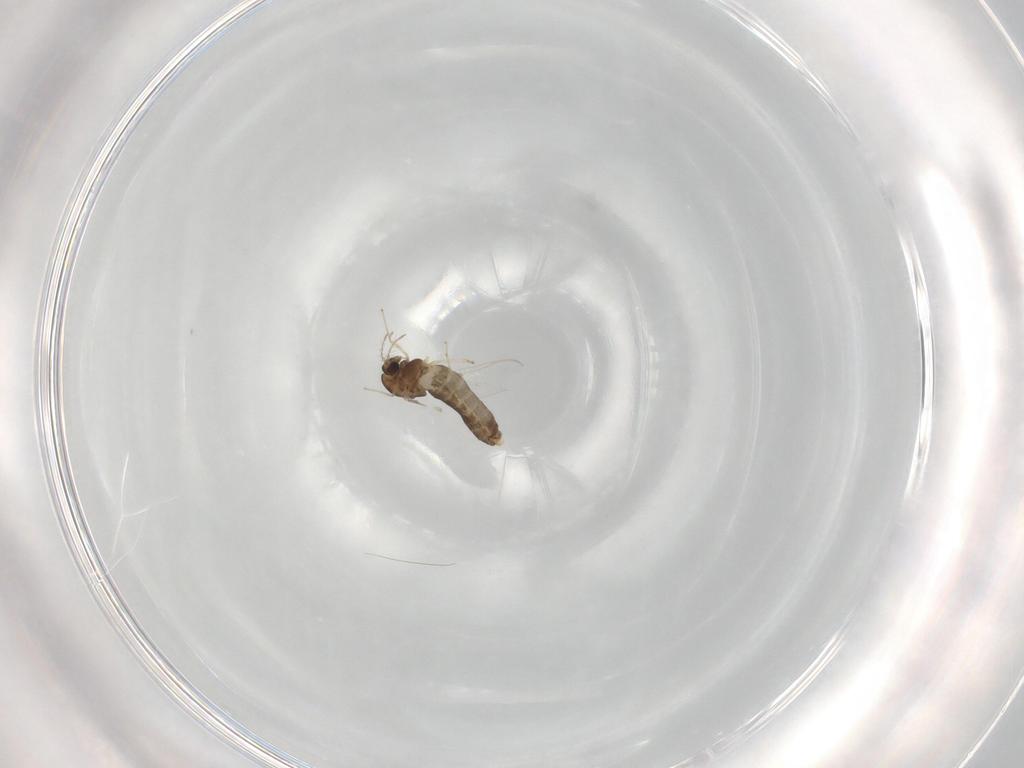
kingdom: Animalia
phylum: Arthropoda
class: Insecta
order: Diptera
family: Chironomidae
